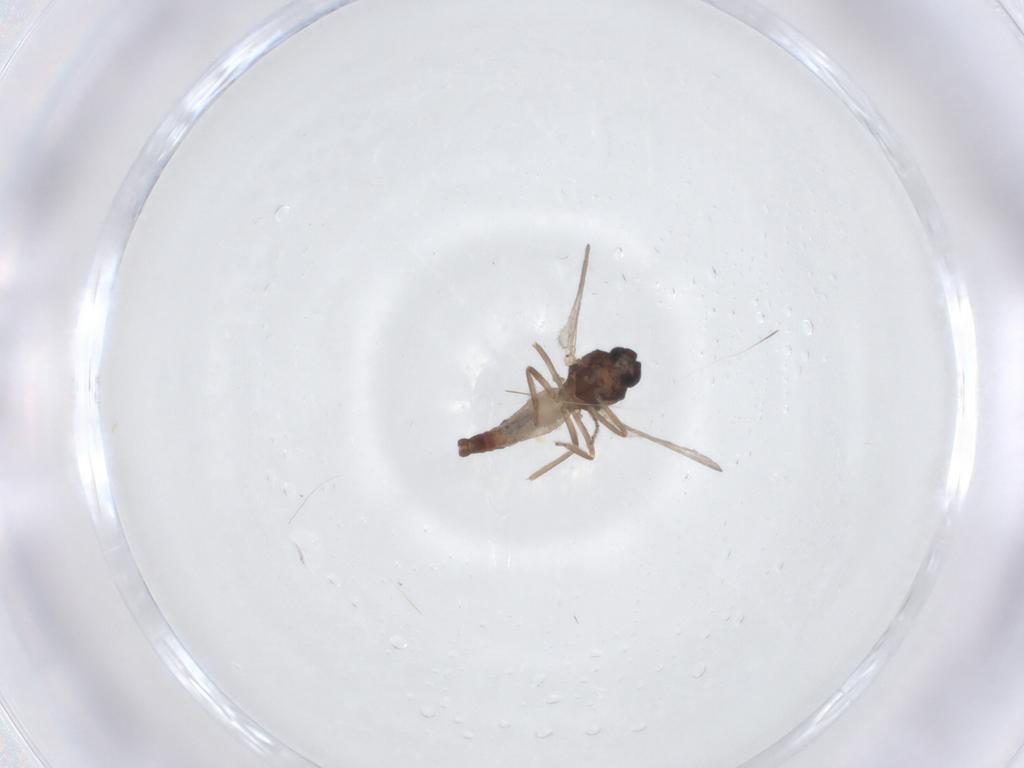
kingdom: Animalia
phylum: Arthropoda
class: Insecta
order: Diptera
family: Ceratopogonidae
